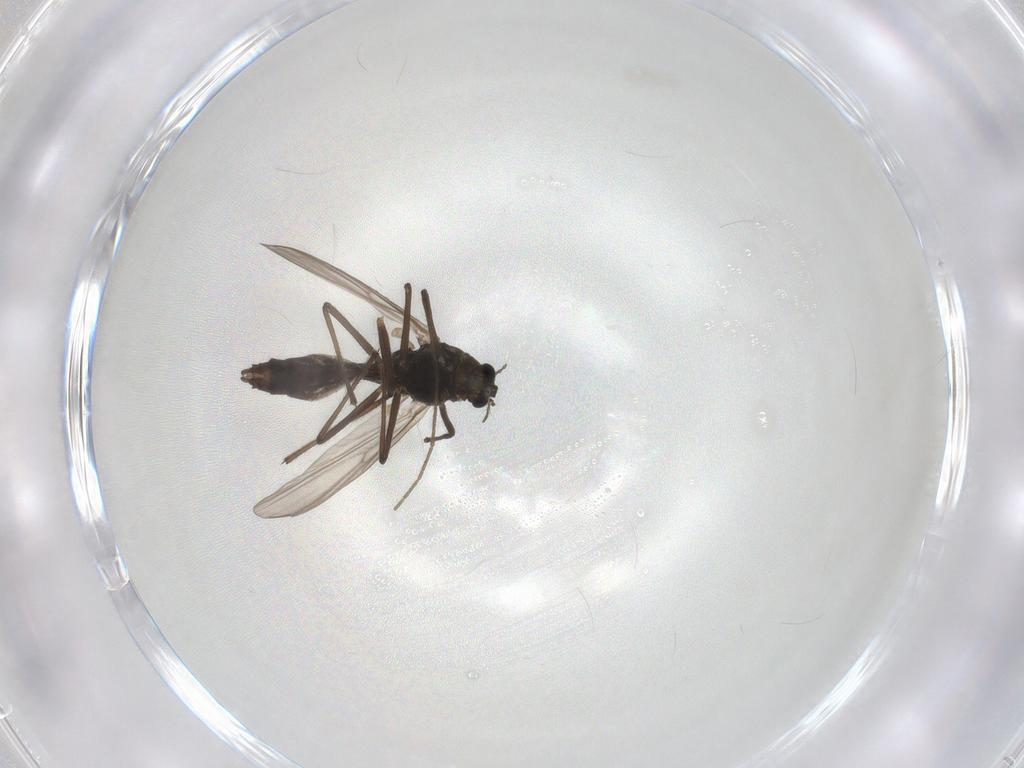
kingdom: Animalia
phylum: Arthropoda
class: Insecta
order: Diptera
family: Chironomidae
